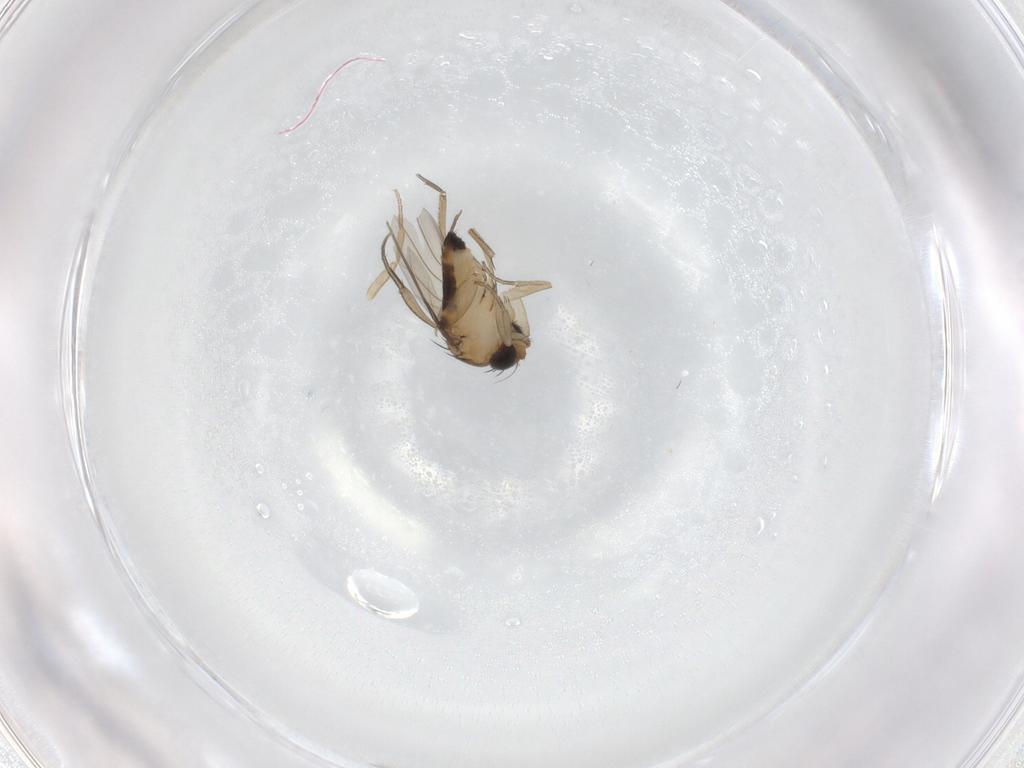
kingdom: Animalia
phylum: Arthropoda
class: Insecta
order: Diptera
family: Phoridae
